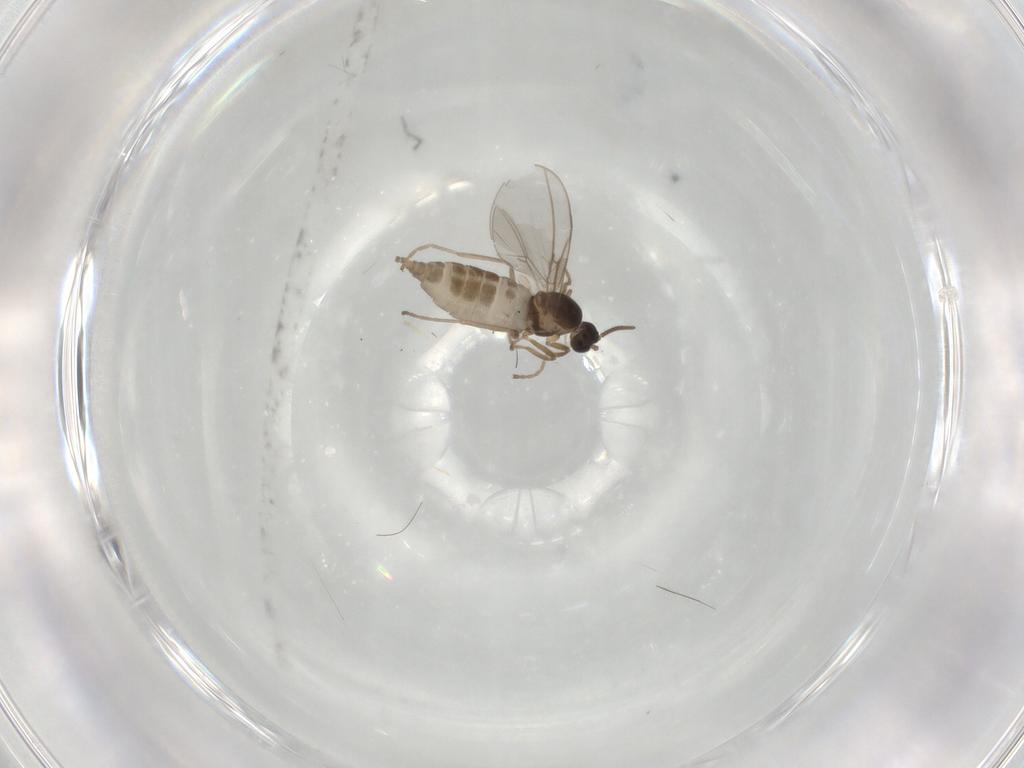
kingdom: Animalia
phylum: Arthropoda
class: Insecta
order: Diptera
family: Cecidomyiidae
